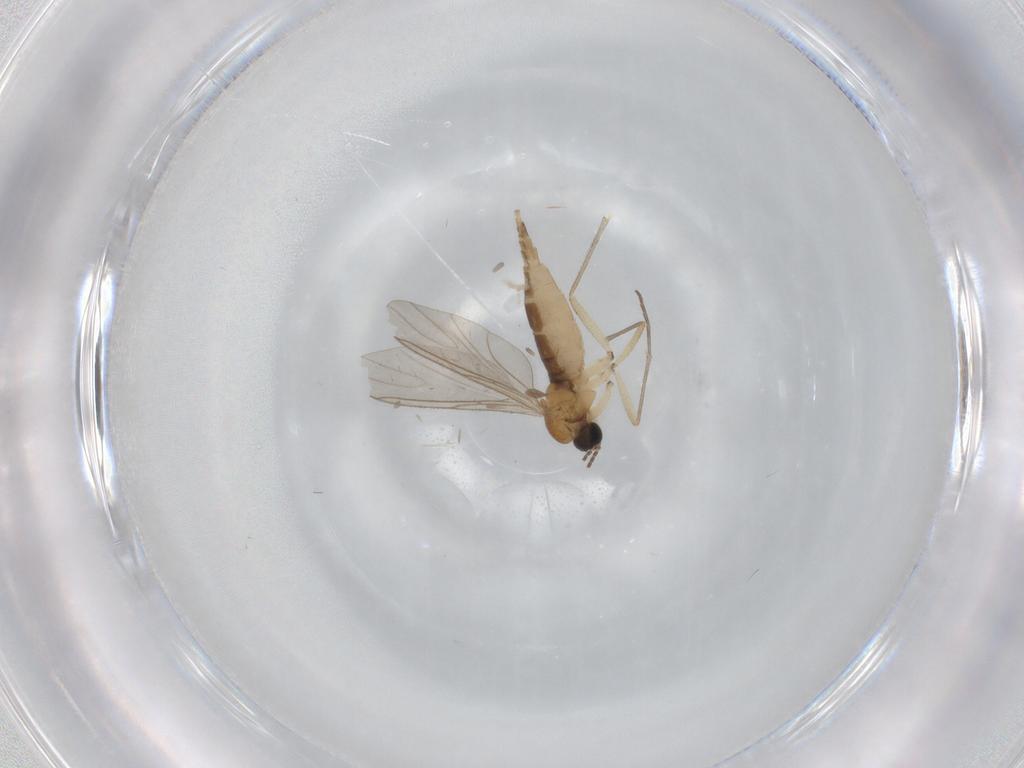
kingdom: Animalia
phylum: Arthropoda
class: Insecta
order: Diptera
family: Sciaridae
